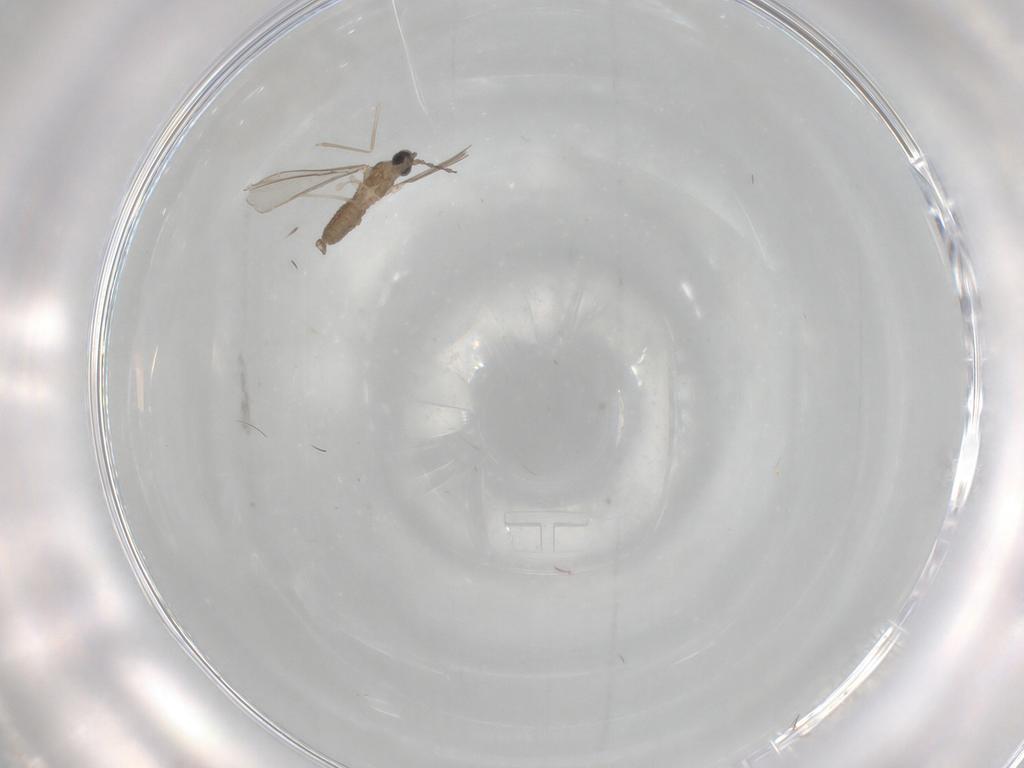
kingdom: Animalia
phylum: Arthropoda
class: Insecta
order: Diptera
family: Cecidomyiidae
